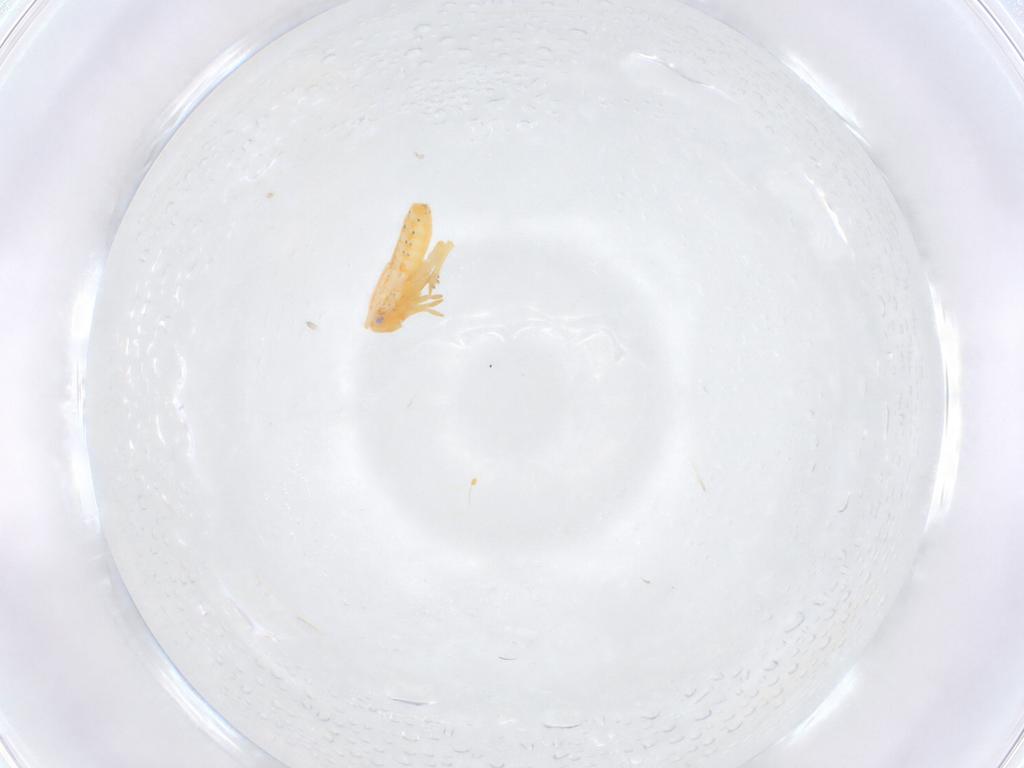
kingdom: Animalia
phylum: Arthropoda
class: Insecta
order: Hemiptera
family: Flatidae
